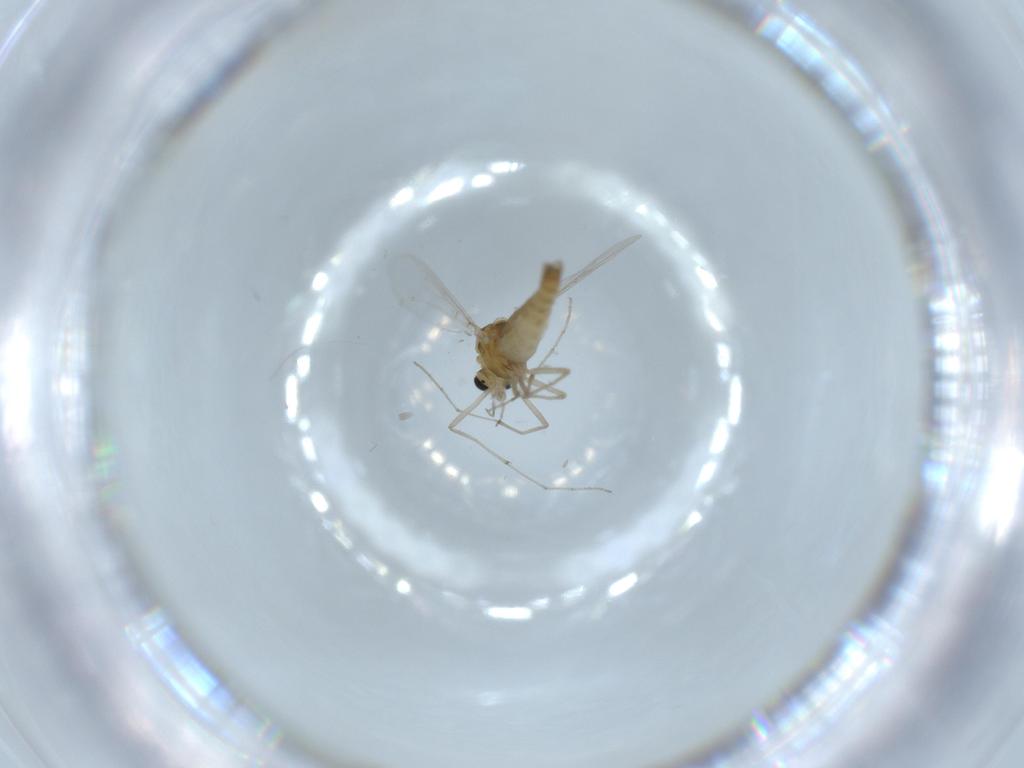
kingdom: Animalia
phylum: Arthropoda
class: Insecta
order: Diptera
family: Chironomidae
